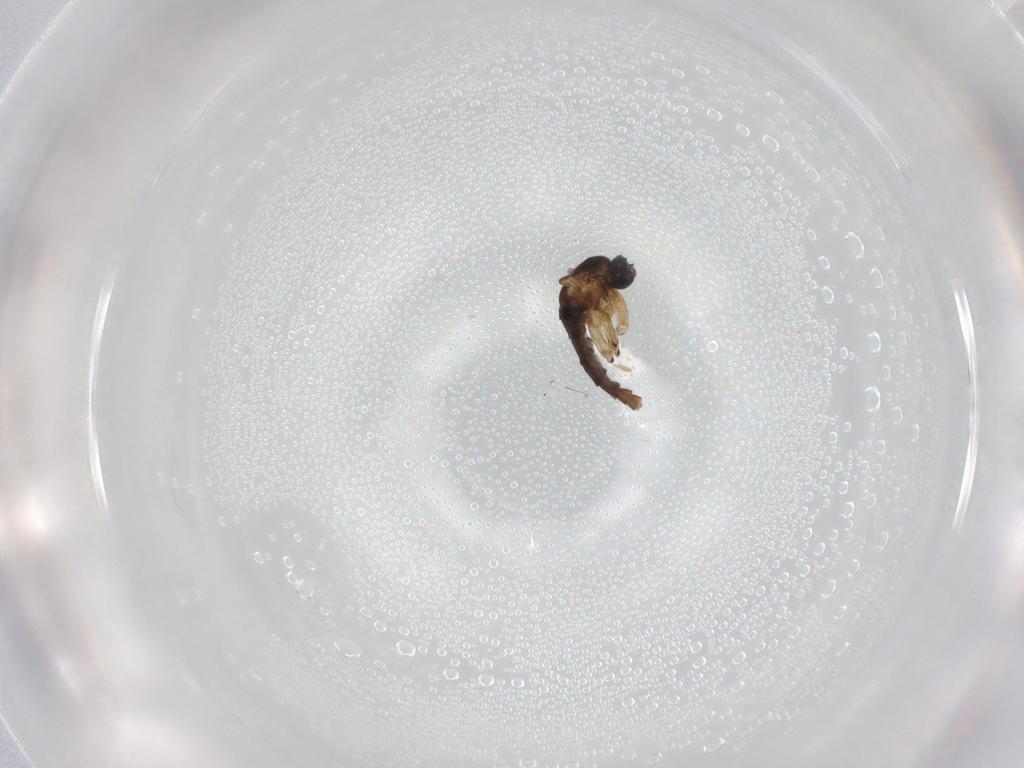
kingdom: Animalia
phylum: Arthropoda
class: Insecta
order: Diptera
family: Sciaridae
